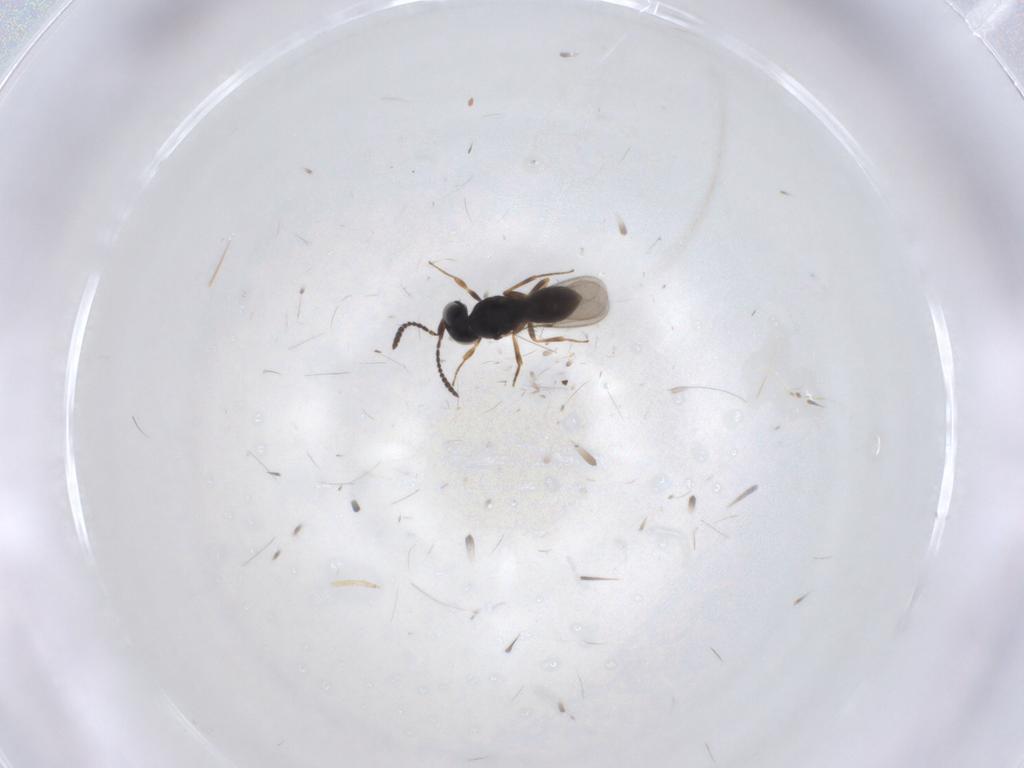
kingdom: Animalia
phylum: Arthropoda
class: Insecta
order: Hymenoptera
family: Scelionidae
